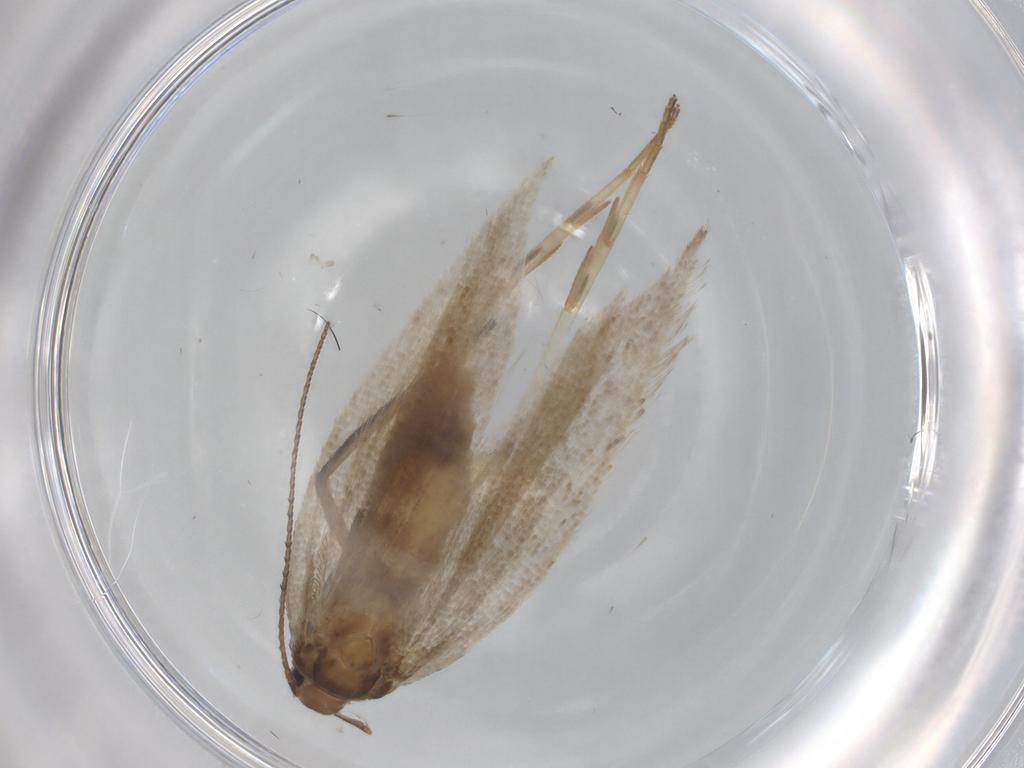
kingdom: Animalia
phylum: Arthropoda
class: Insecta
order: Lepidoptera
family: Gelechiidae
